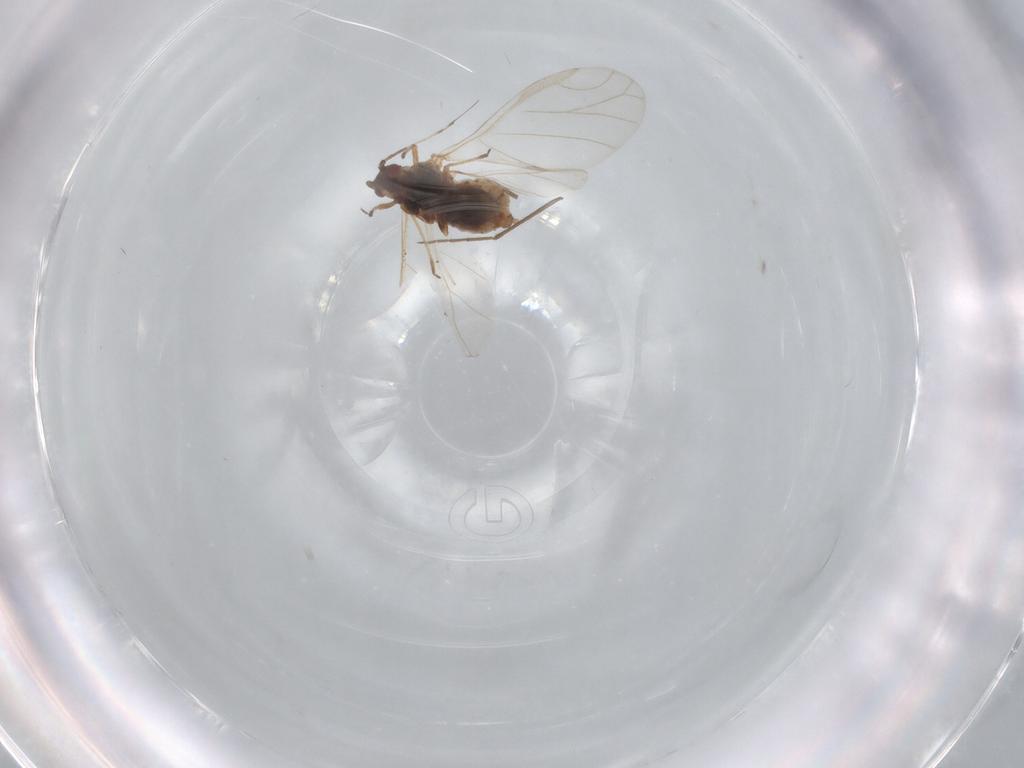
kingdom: Animalia
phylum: Arthropoda
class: Insecta
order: Hemiptera
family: Aphididae
